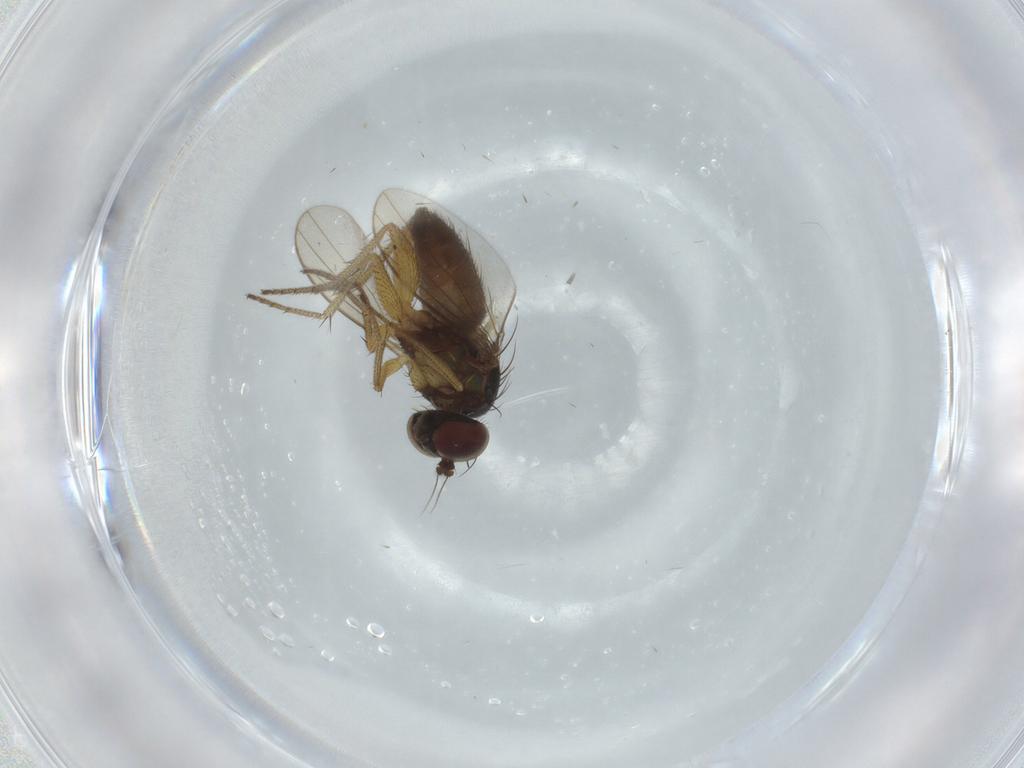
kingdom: Animalia
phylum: Arthropoda
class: Insecta
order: Diptera
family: Dolichopodidae
